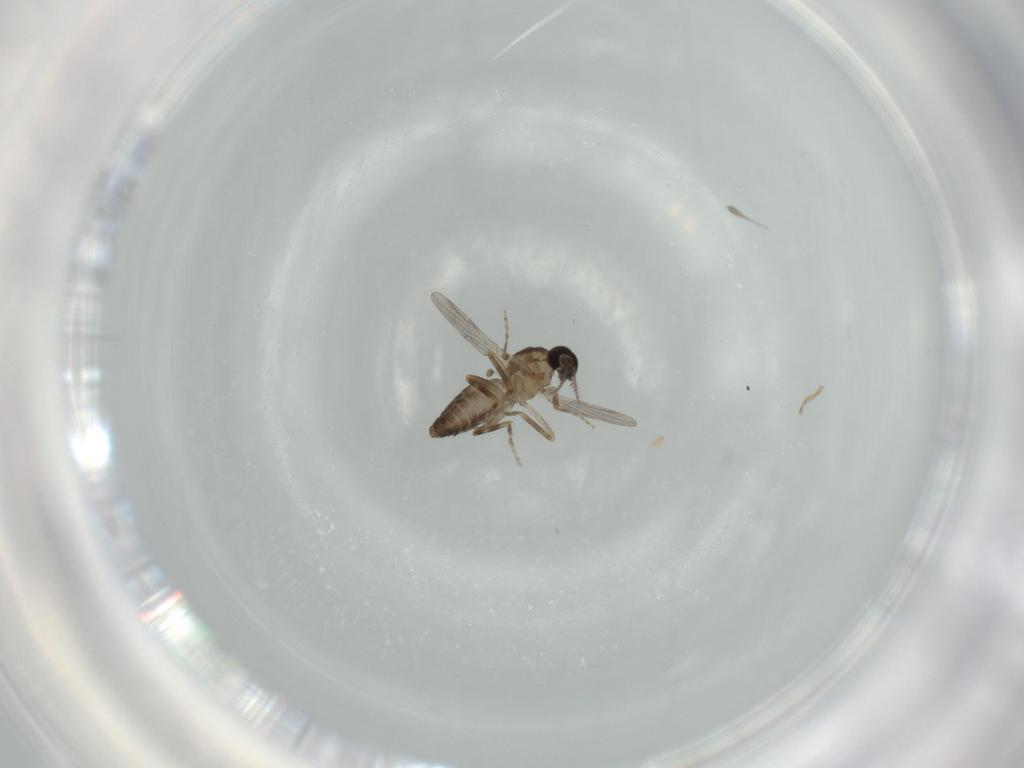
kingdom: Animalia
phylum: Arthropoda
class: Insecta
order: Diptera
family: Ceratopogonidae
